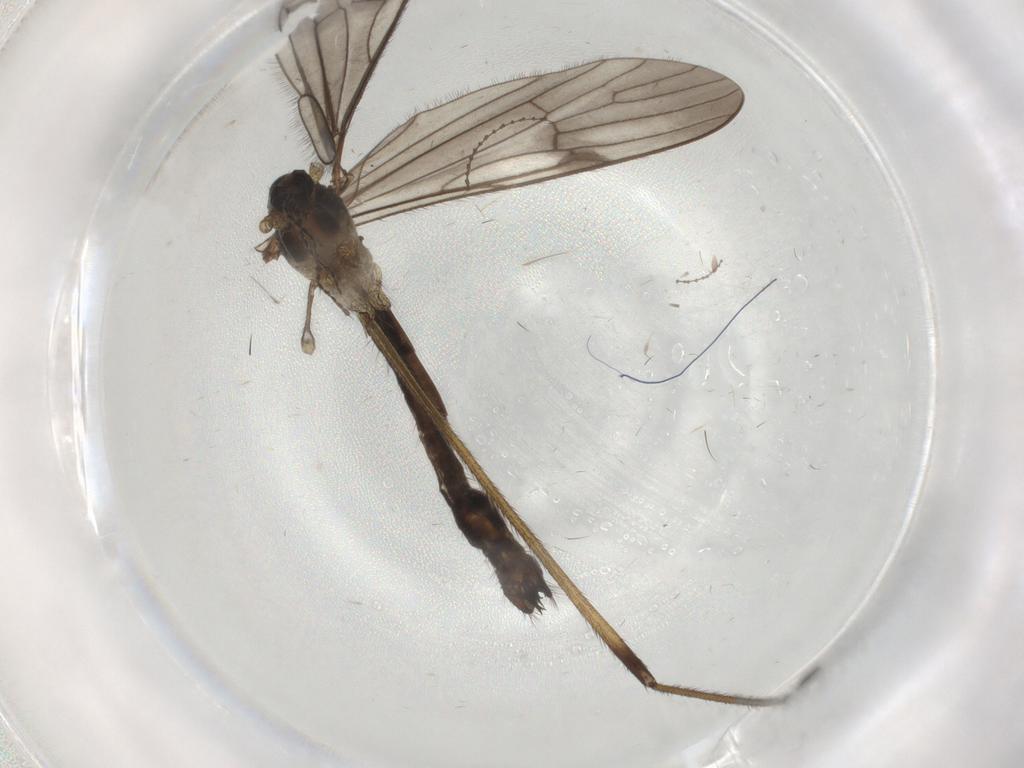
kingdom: Animalia
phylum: Arthropoda
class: Insecta
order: Diptera
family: Limoniidae
